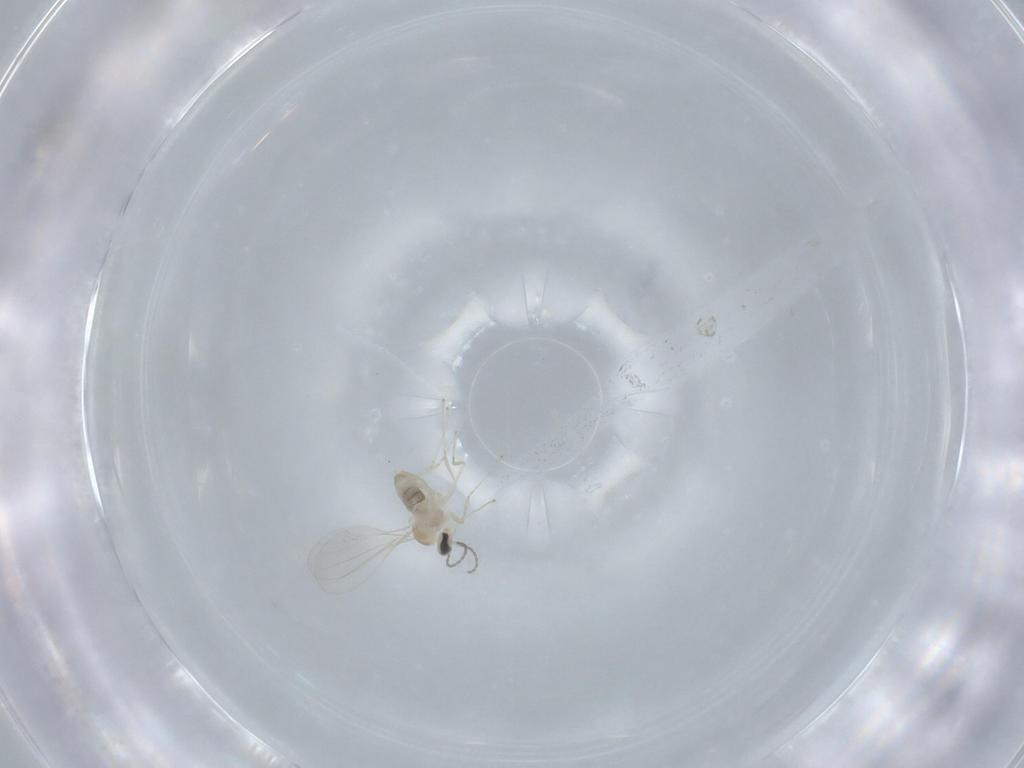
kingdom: Animalia
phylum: Arthropoda
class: Insecta
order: Diptera
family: Cecidomyiidae
